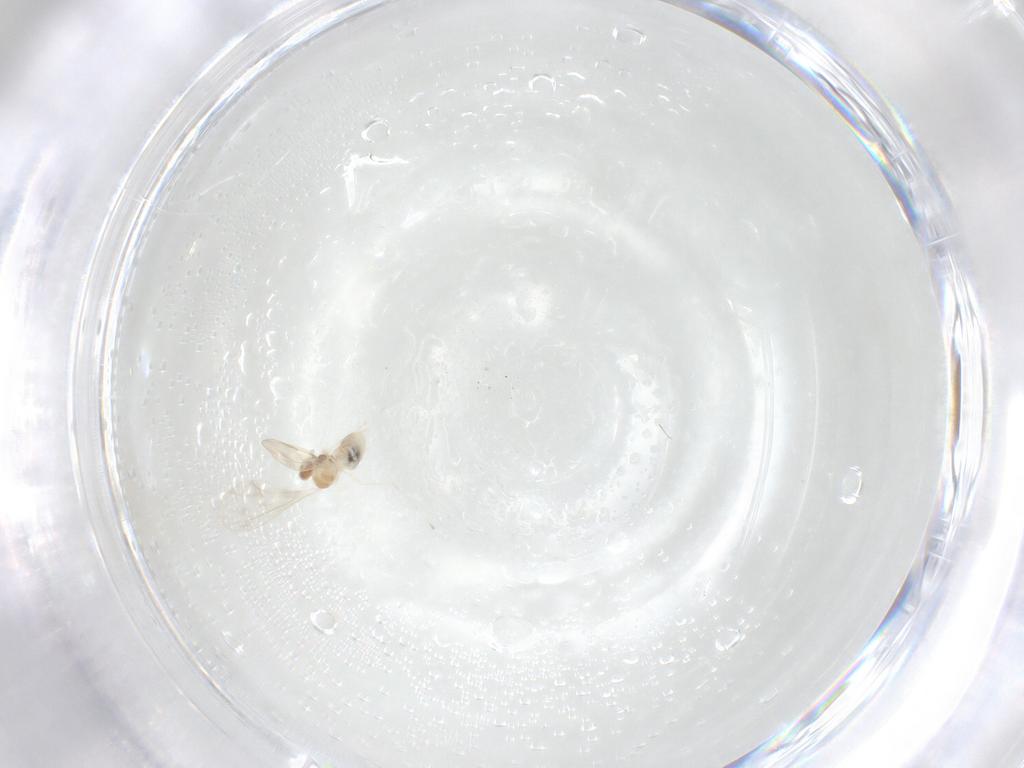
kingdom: Animalia
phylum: Arthropoda
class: Insecta
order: Diptera
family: Cecidomyiidae
